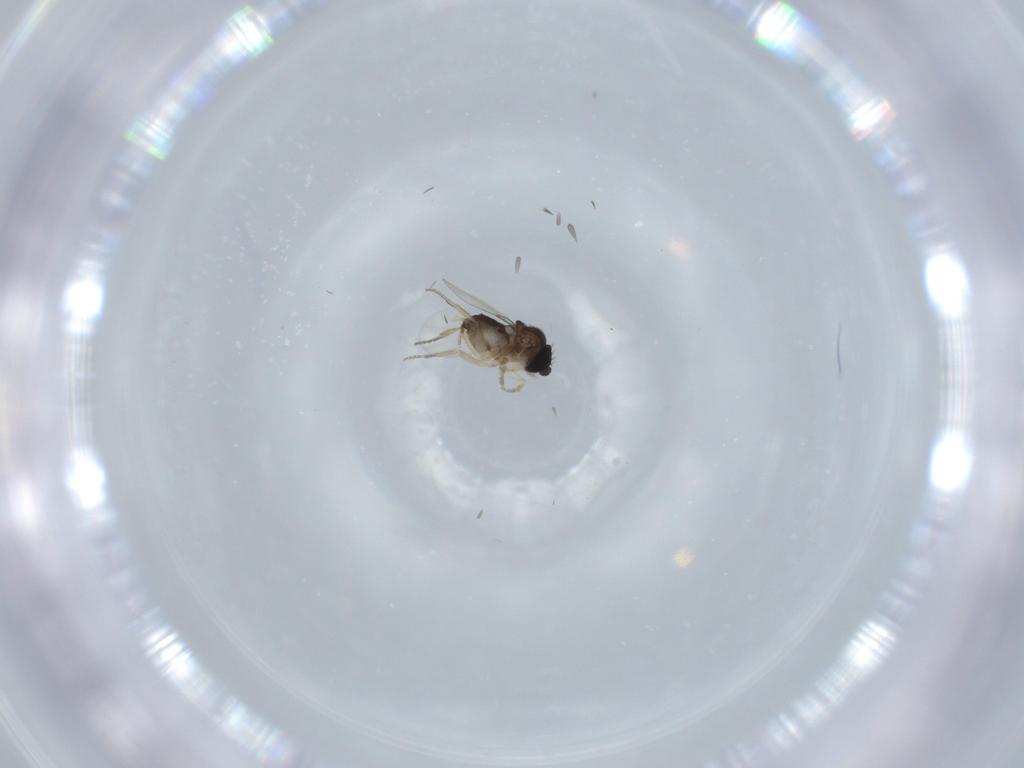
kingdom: Animalia
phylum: Arthropoda
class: Insecta
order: Diptera
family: Phoridae
